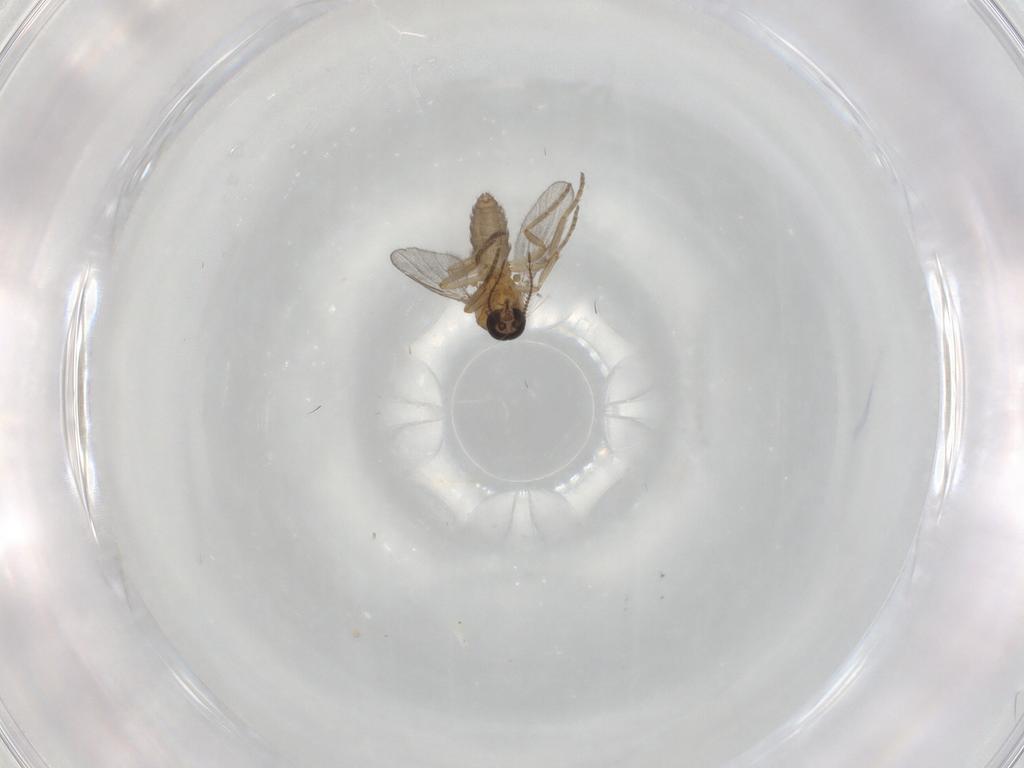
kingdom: Animalia
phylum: Arthropoda
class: Insecta
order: Diptera
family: Ceratopogonidae
